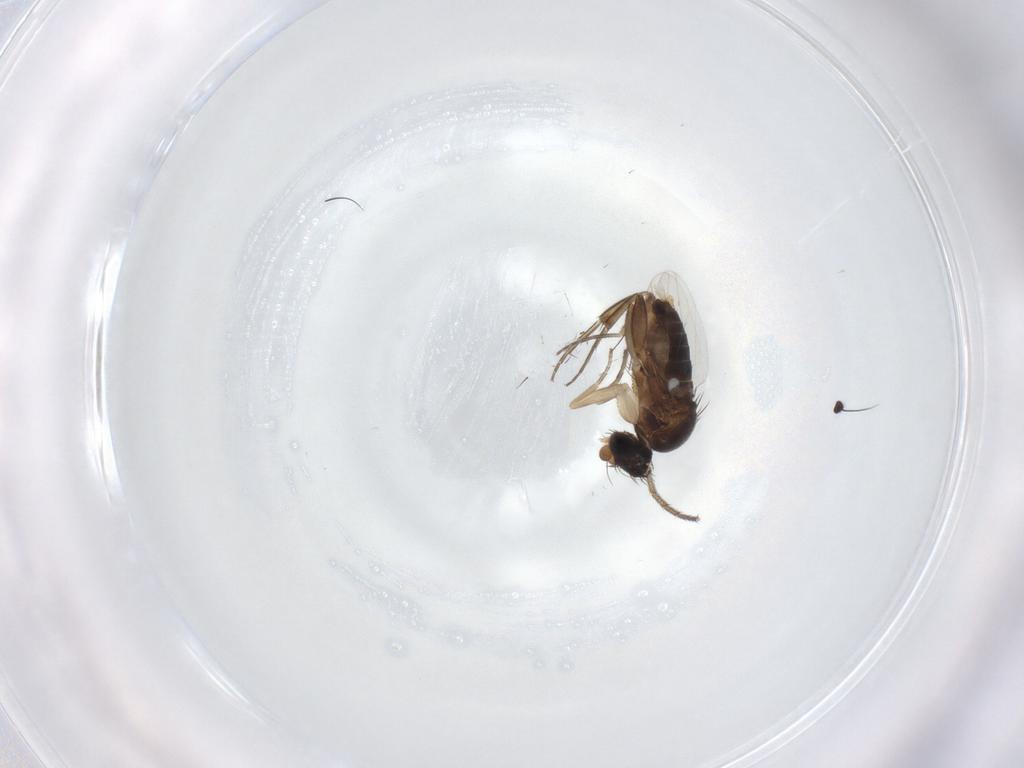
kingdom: Animalia
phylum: Arthropoda
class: Insecta
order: Diptera
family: Dolichopodidae
